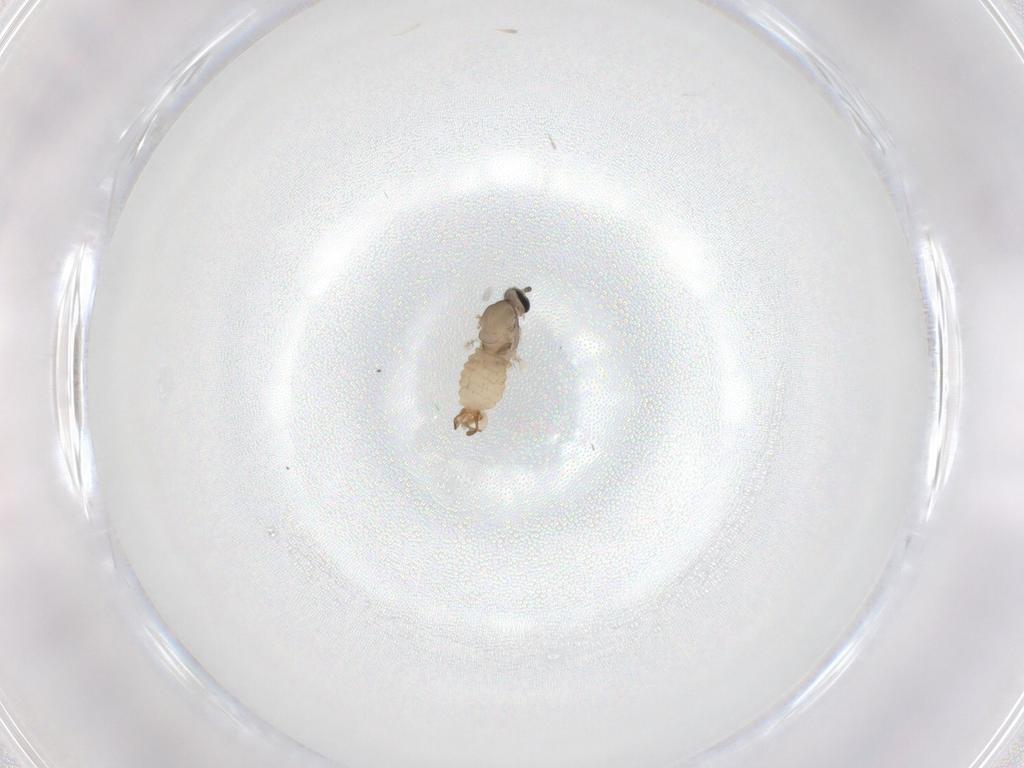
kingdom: Animalia
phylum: Arthropoda
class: Insecta
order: Diptera
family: Cecidomyiidae
